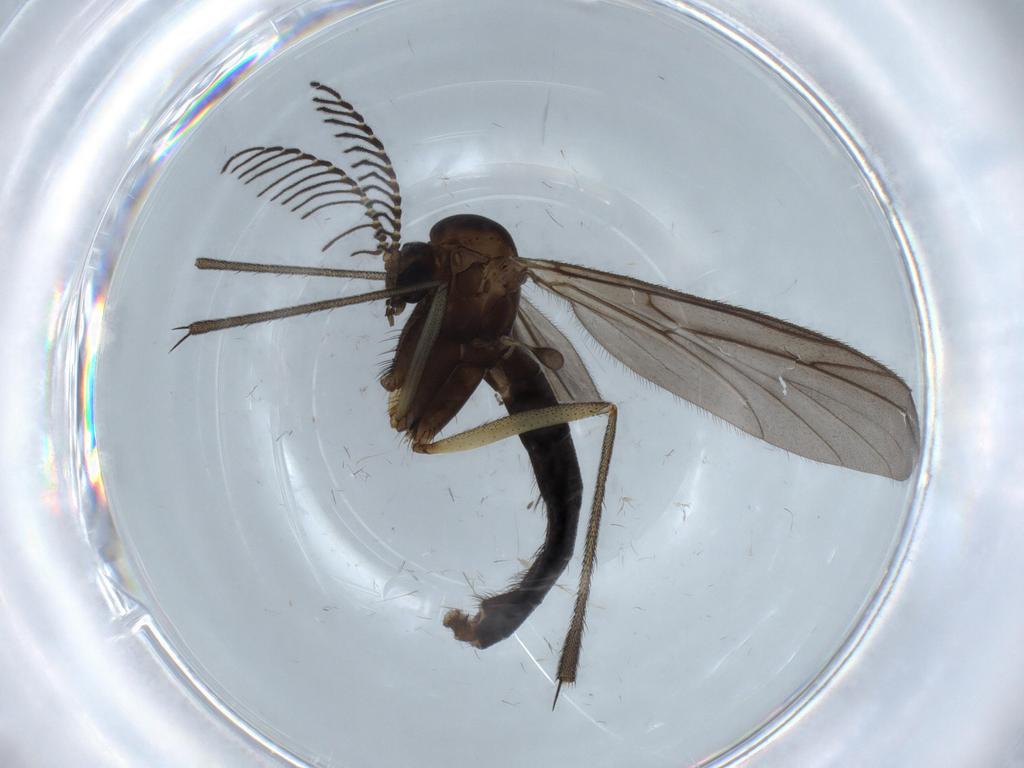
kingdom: Animalia
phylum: Arthropoda
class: Insecta
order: Diptera
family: Psychodidae
